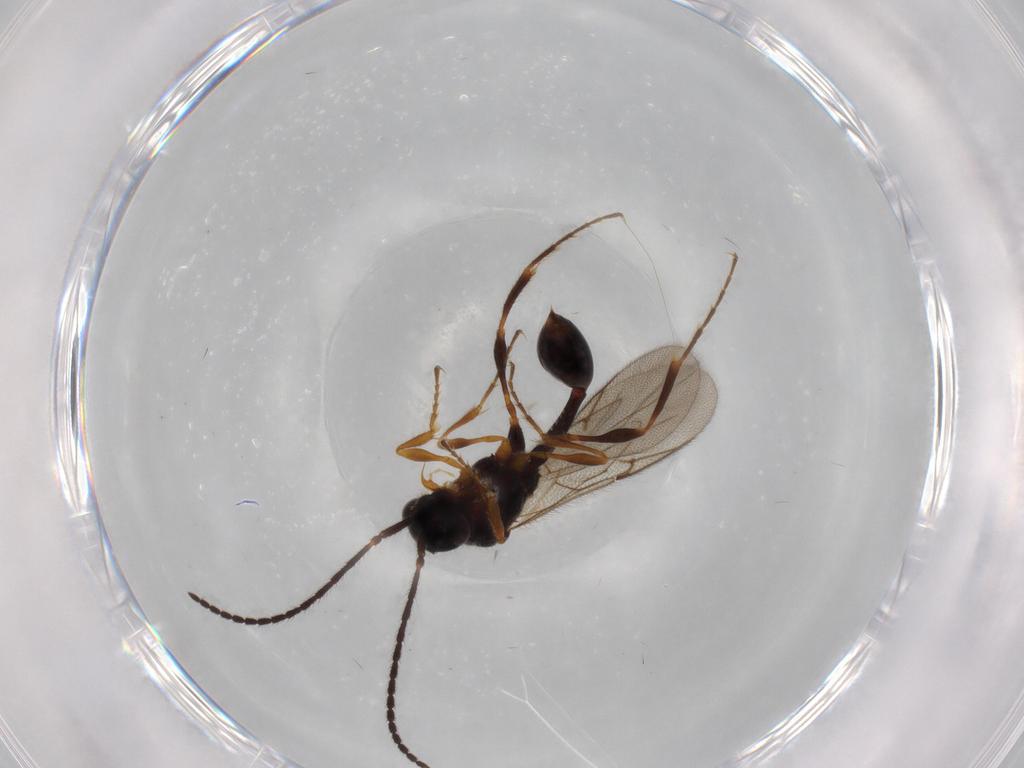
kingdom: Animalia
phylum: Arthropoda
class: Insecta
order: Hymenoptera
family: Diapriidae
